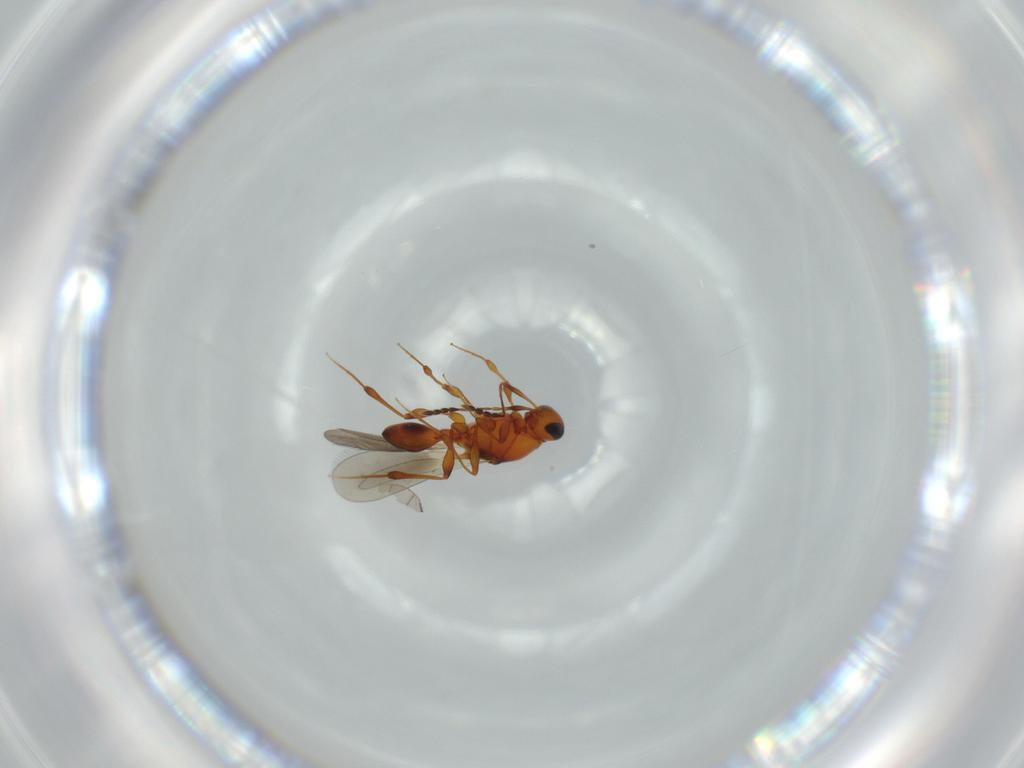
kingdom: Animalia
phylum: Arthropoda
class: Insecta
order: Hymenoptera
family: Platygastridae
